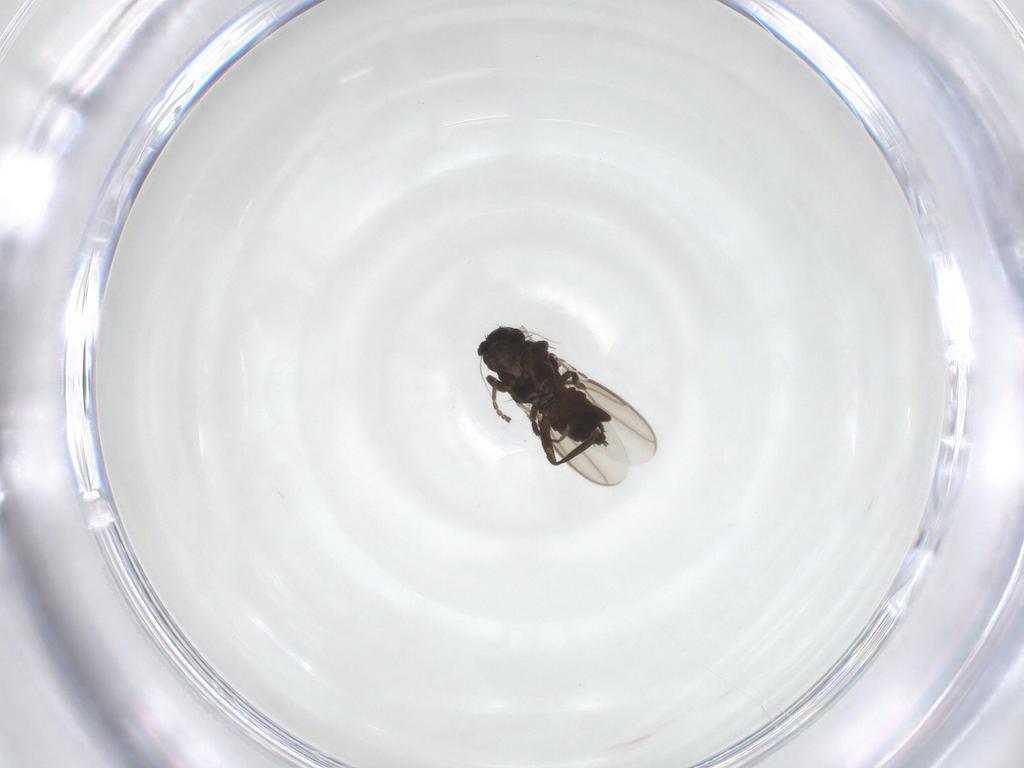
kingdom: Animalia
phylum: Arthropoda
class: Insecta
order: Diptera
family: Sphaeroceridae
